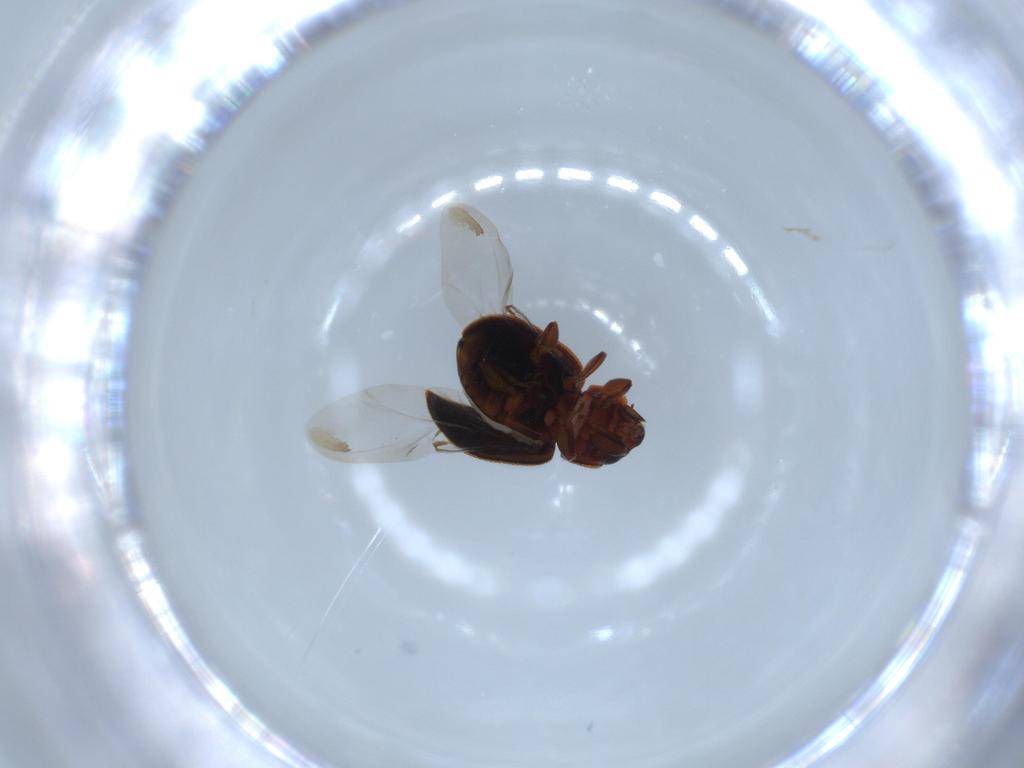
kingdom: Animalia
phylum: Arthropoda
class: Insecta
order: Coleoptera
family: Coccinellidae
